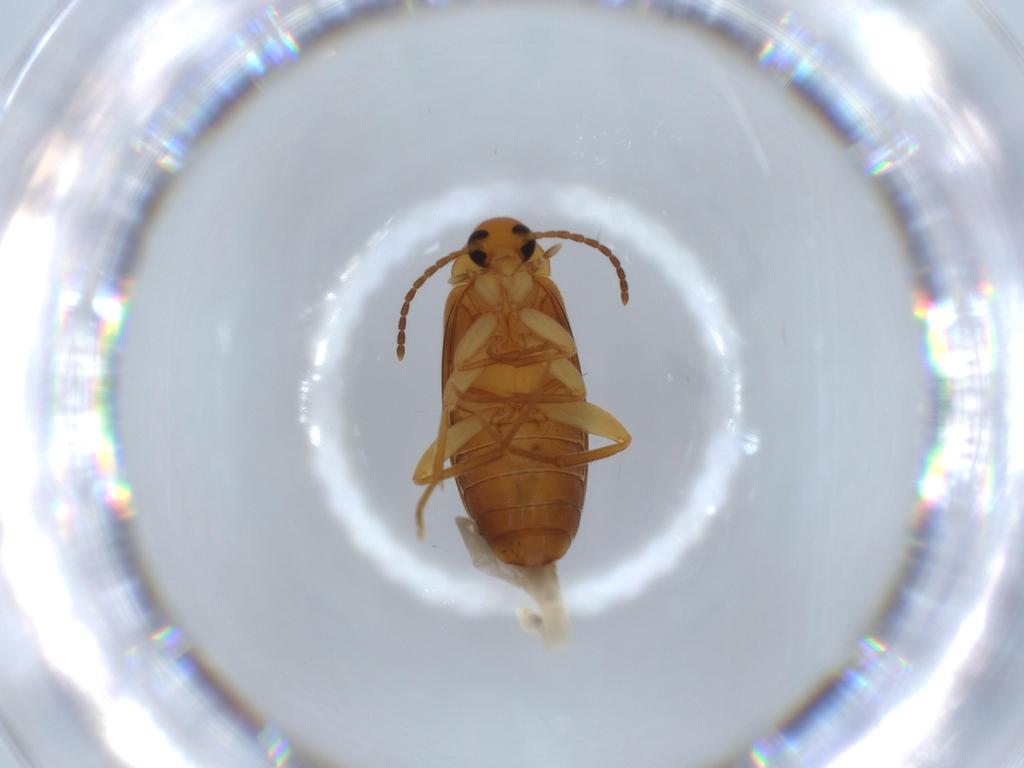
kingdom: Animalia
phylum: Arthropoda
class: Insecta
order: Coleoptera
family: Scraptiidae
